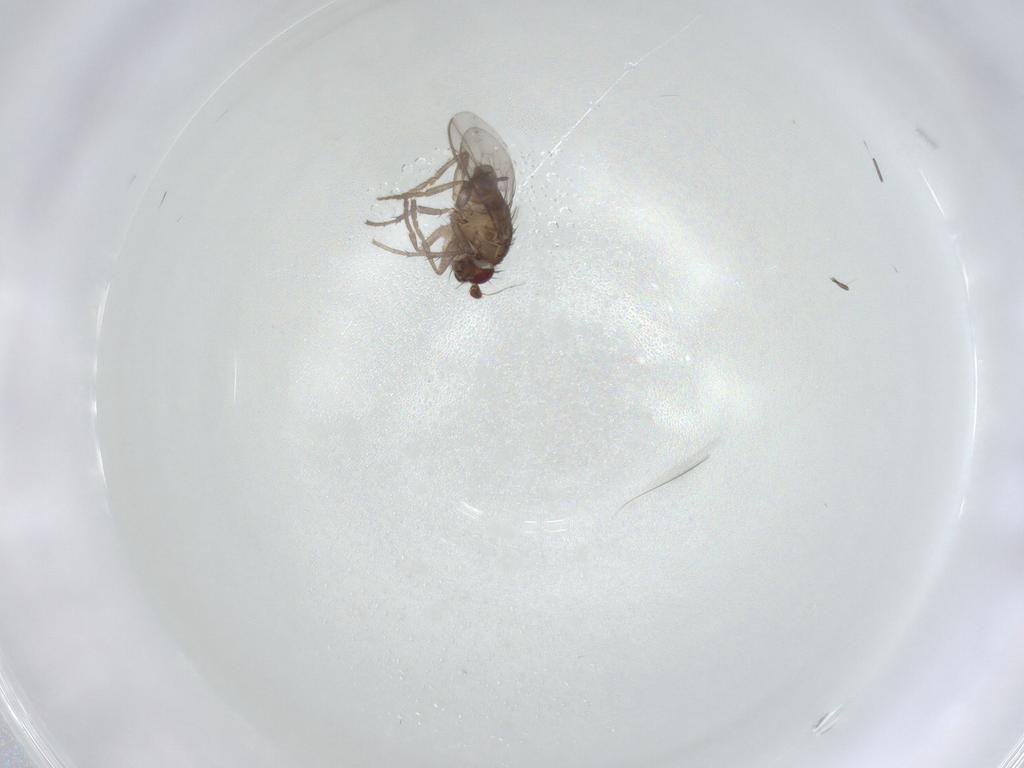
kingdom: Animalia
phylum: Arthropoda
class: Insecta
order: Diptera
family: Sphaeroceridae
